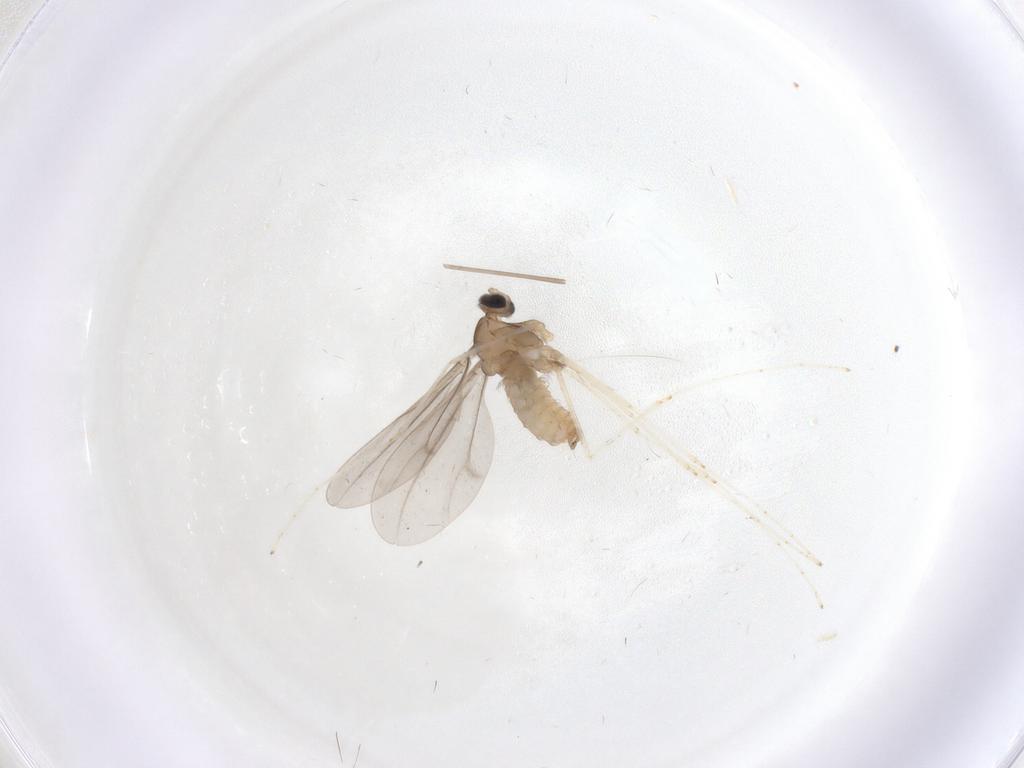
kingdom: Animalia
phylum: Arthropoda
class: Insecta
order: Diptera
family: Cecidomyiidae
